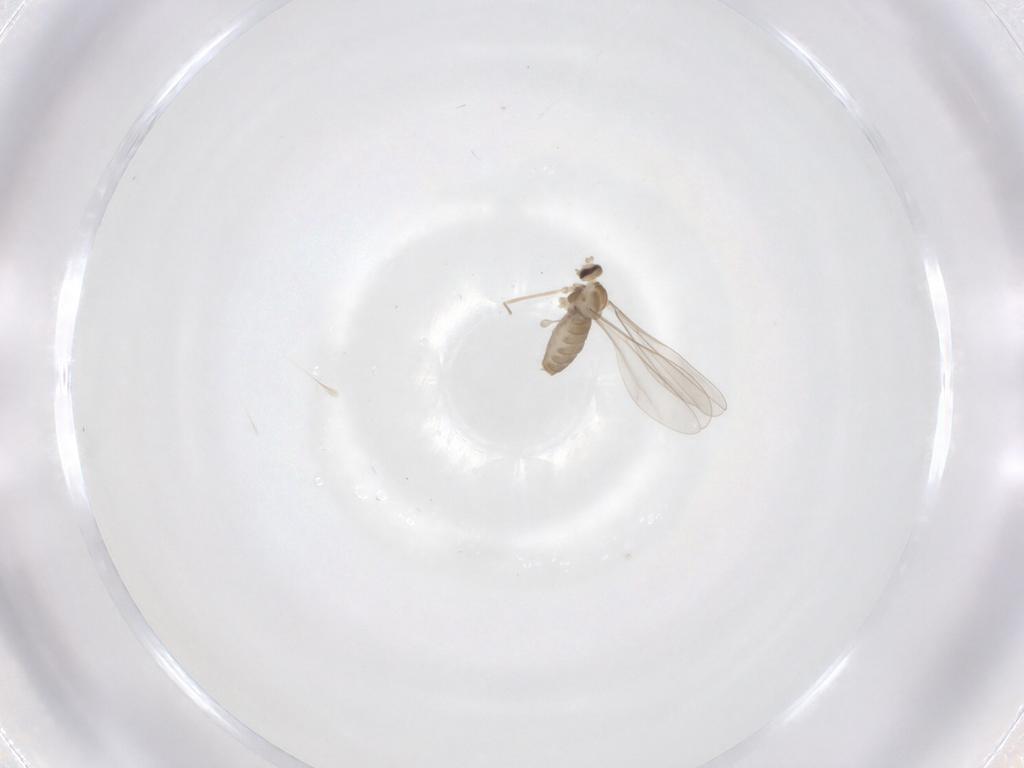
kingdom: Animalia
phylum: Arthropoda
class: Insecta
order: Diptera
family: Cecidomyiidae
